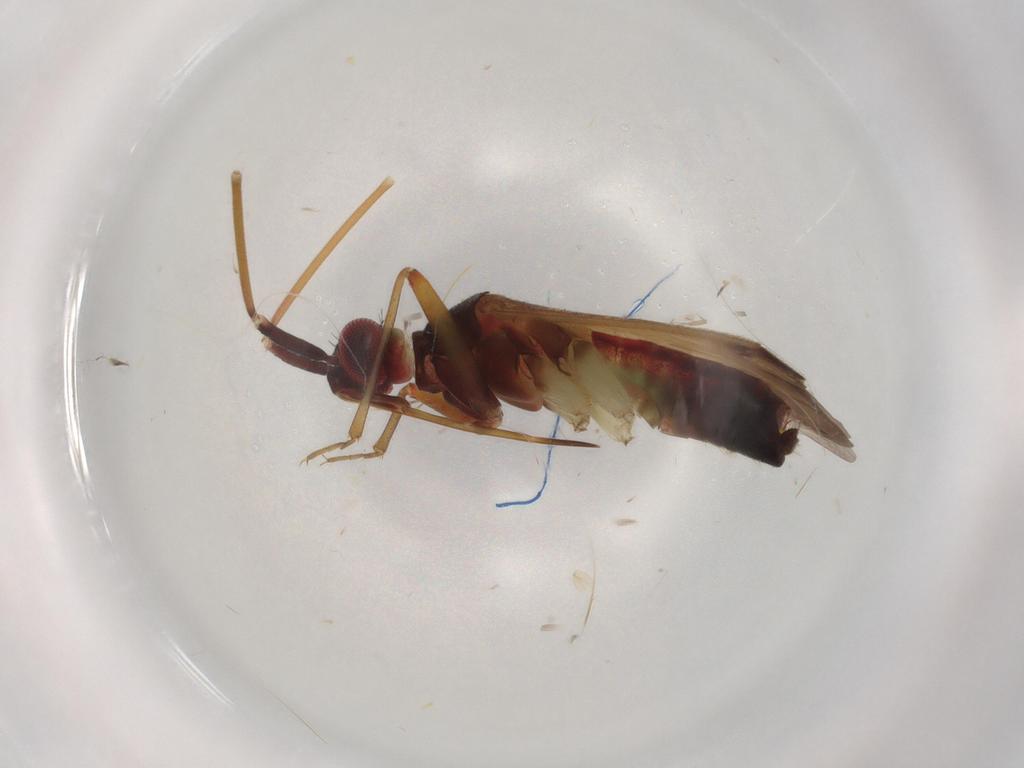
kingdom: Animalia
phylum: Arthropoda
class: Insecta
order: Hemiptera
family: Miridae
